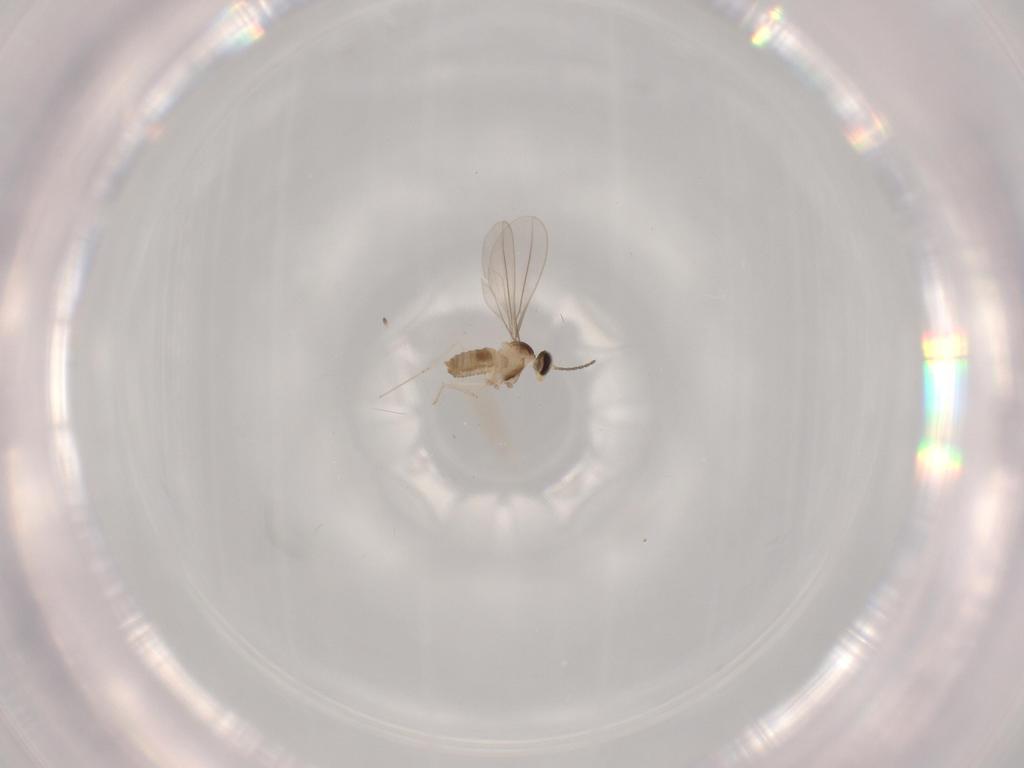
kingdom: Animalia
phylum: Arthropoda
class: Insecta
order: Diptera
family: Cecidomyiidae
